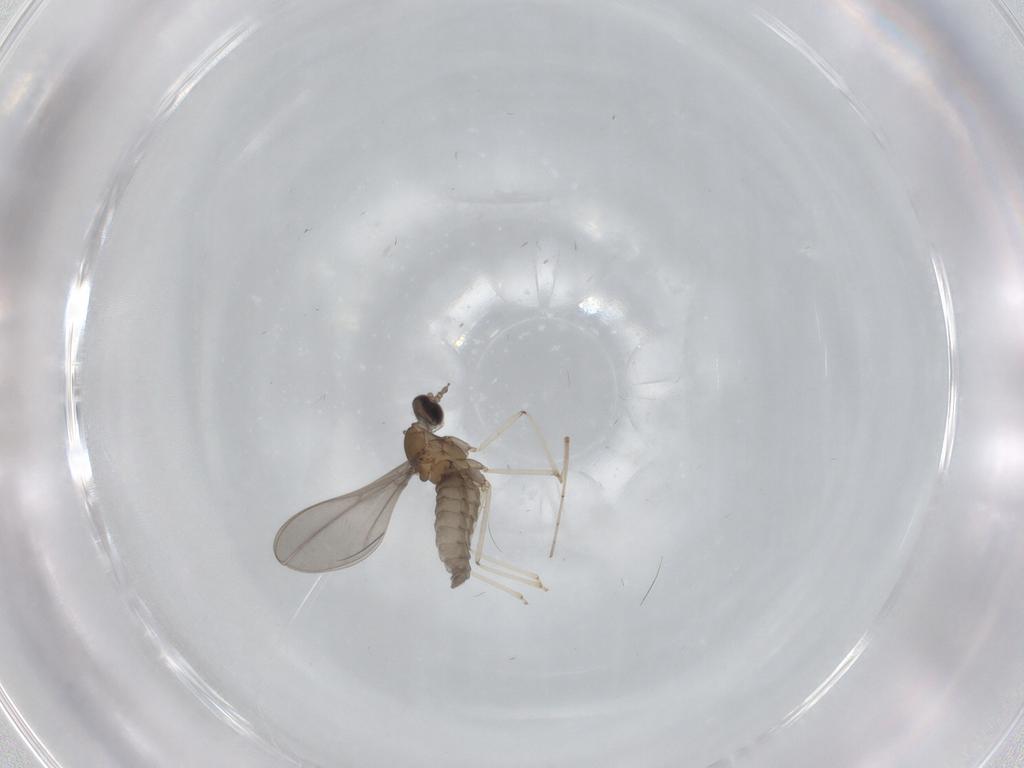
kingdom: Animalia
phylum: Arthropoda
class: Insecta
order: Diptera
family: Cecidomyiidae
